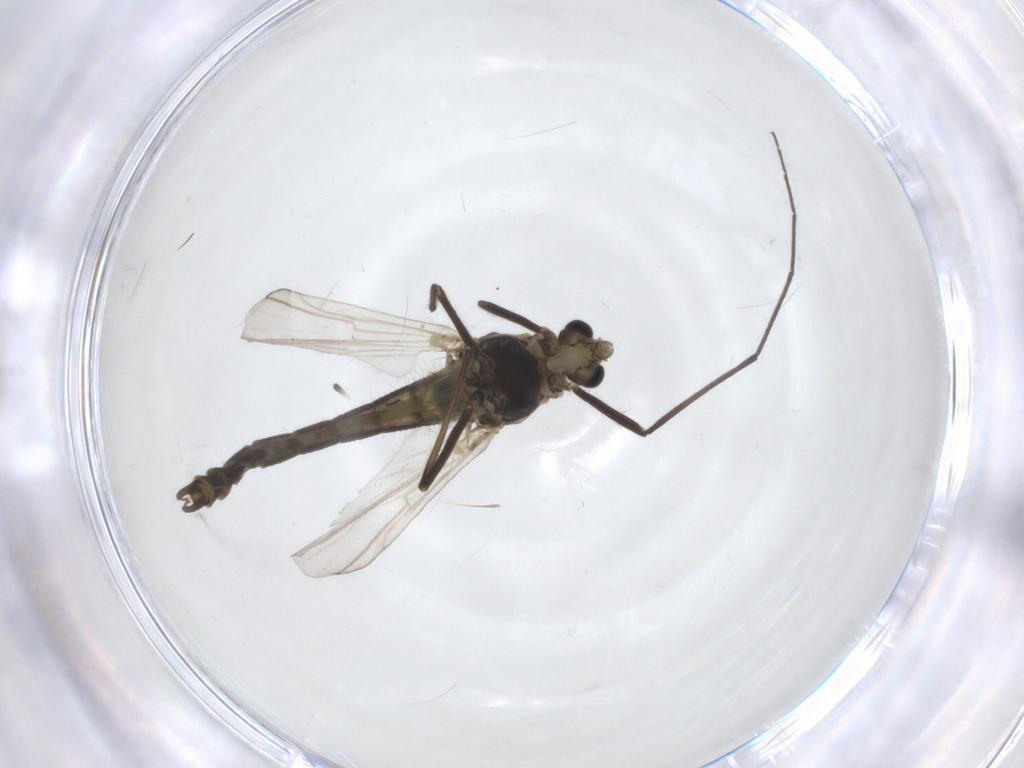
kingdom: Animalia
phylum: Arthropoda
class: Insecta
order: Diptera
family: Chironomidae
